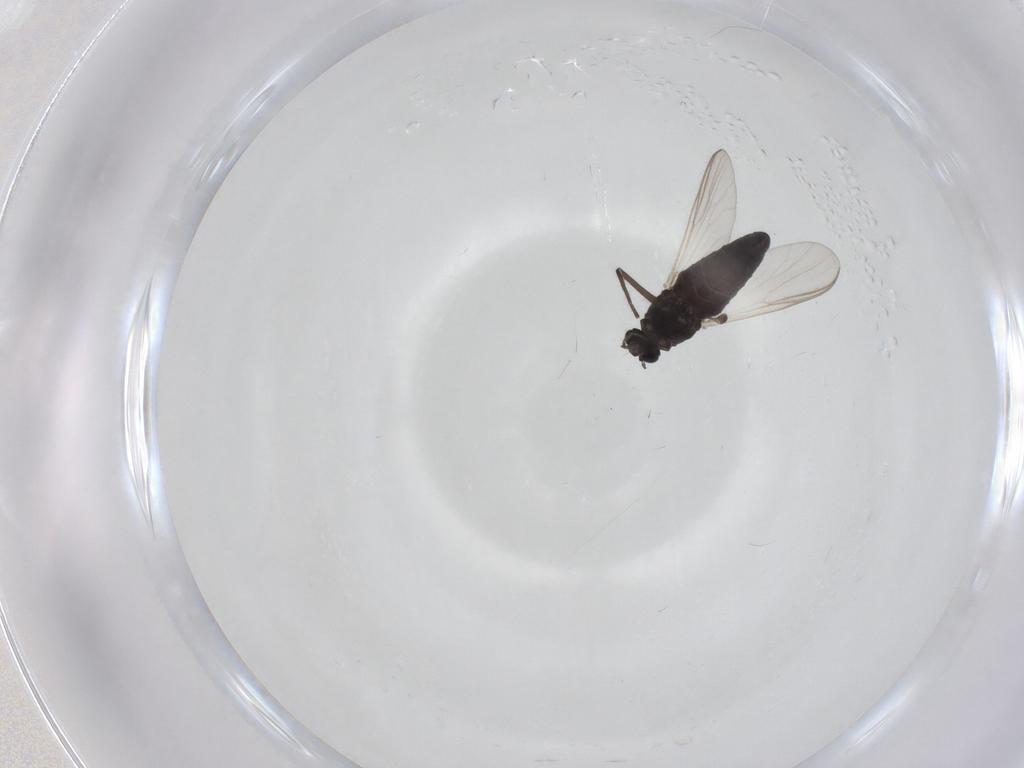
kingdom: Animalia
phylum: Arthropoda
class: Insecta
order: Diptera
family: Chironomidae
